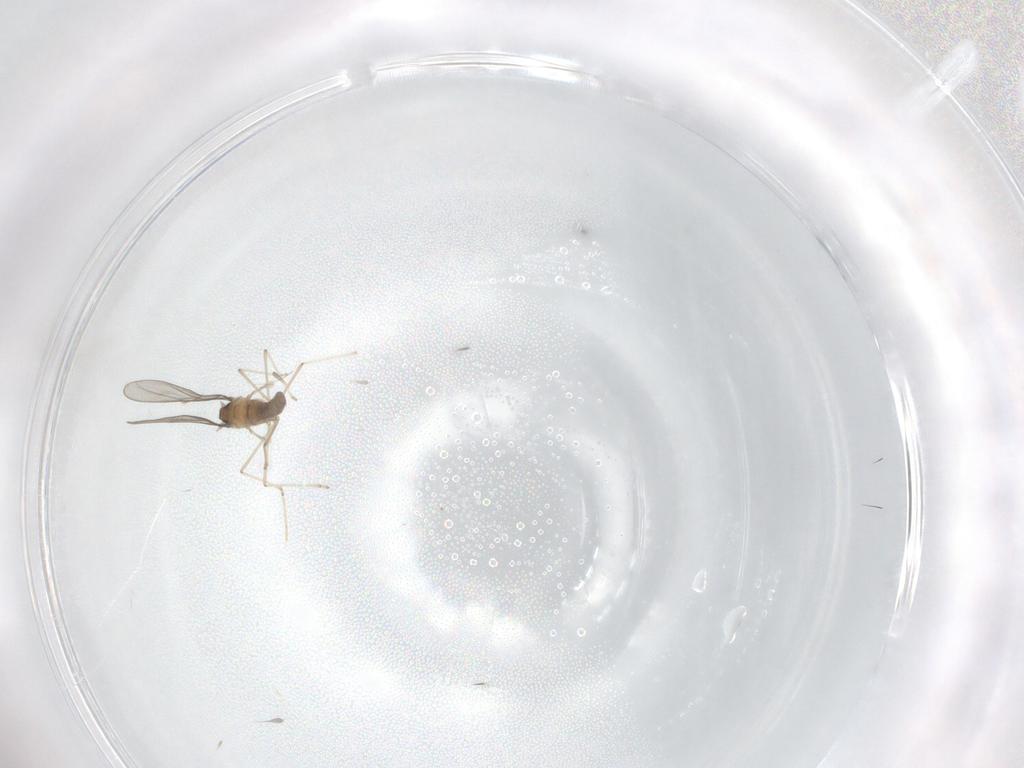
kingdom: Animalia
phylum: Arthropoda
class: Insecta
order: Diptera
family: Cecidomyiidae
